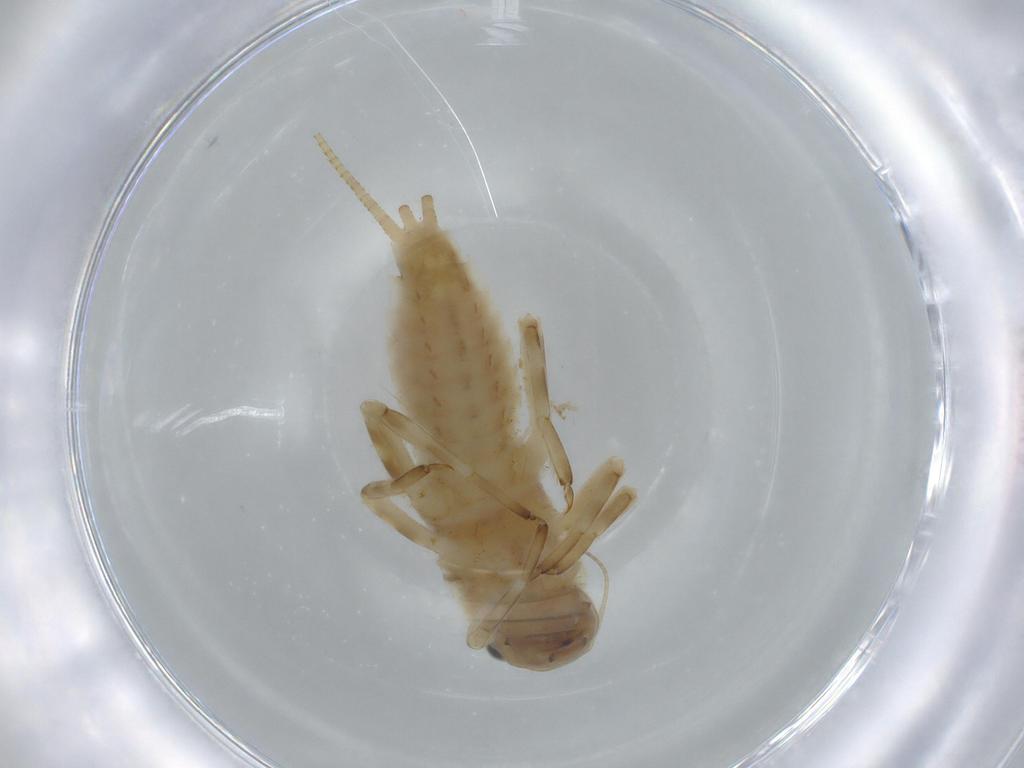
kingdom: Animalia
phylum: Arthropoda
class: Insecta
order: Ephemeroptera
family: Ephemerellidae
